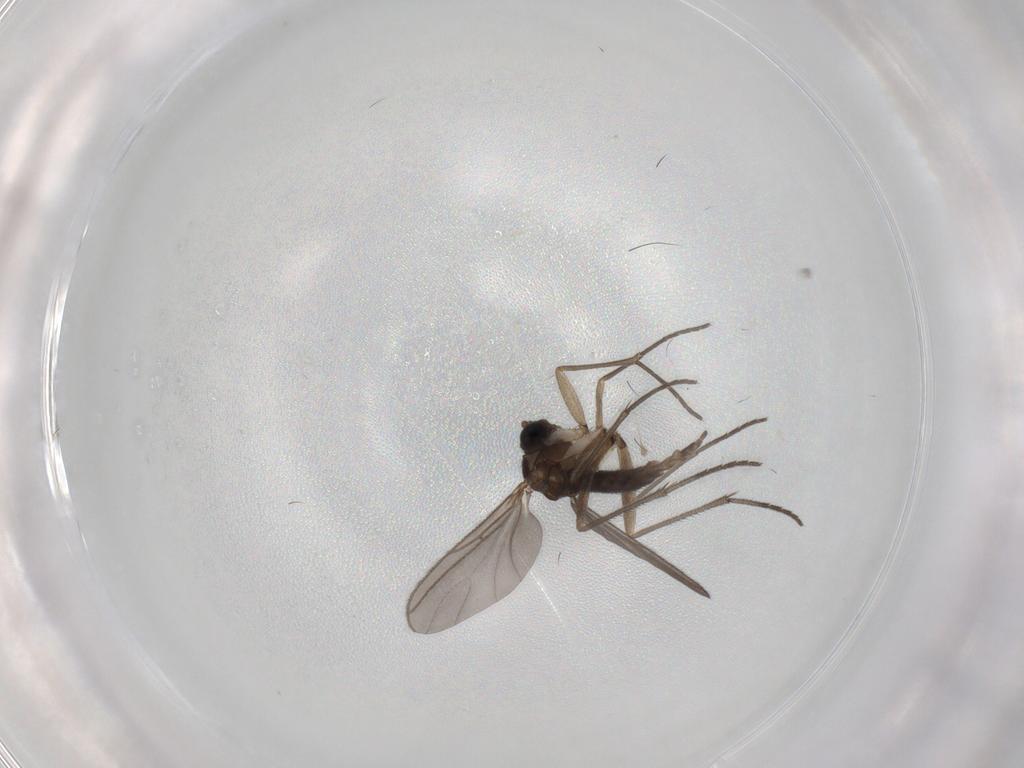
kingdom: Animalia
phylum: Arthropoda
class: Insecta
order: Diptera
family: Sciaridae
